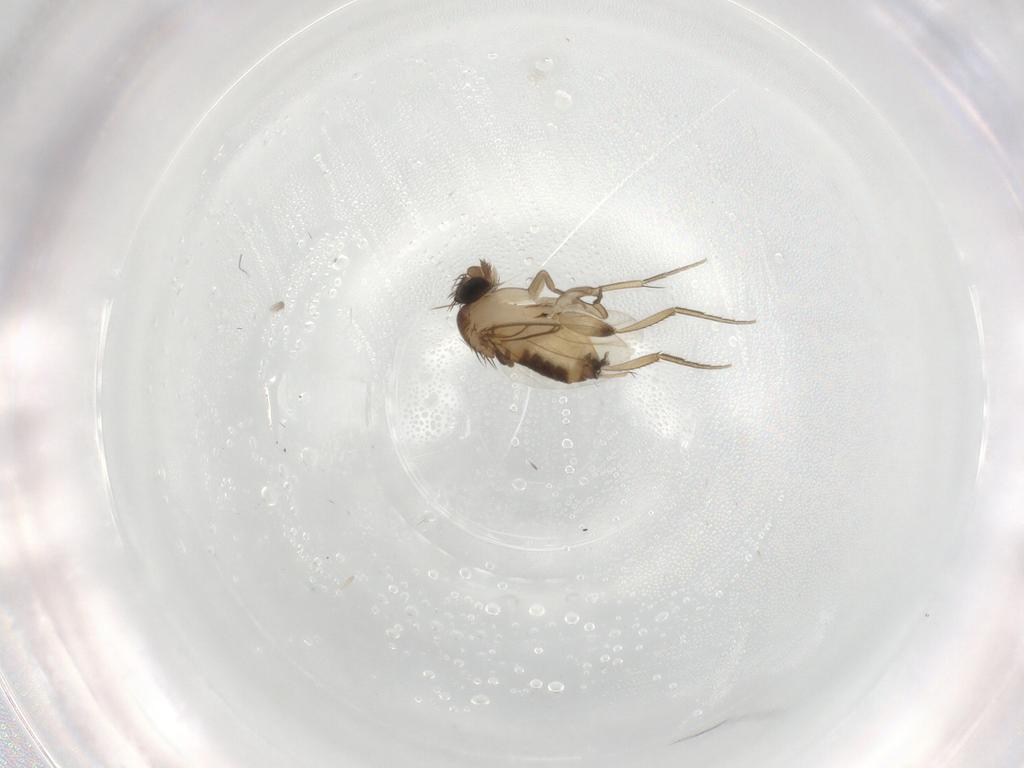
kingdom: Animalia
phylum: Arthropoda
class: Insecta
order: Diptera
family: Phoridae
